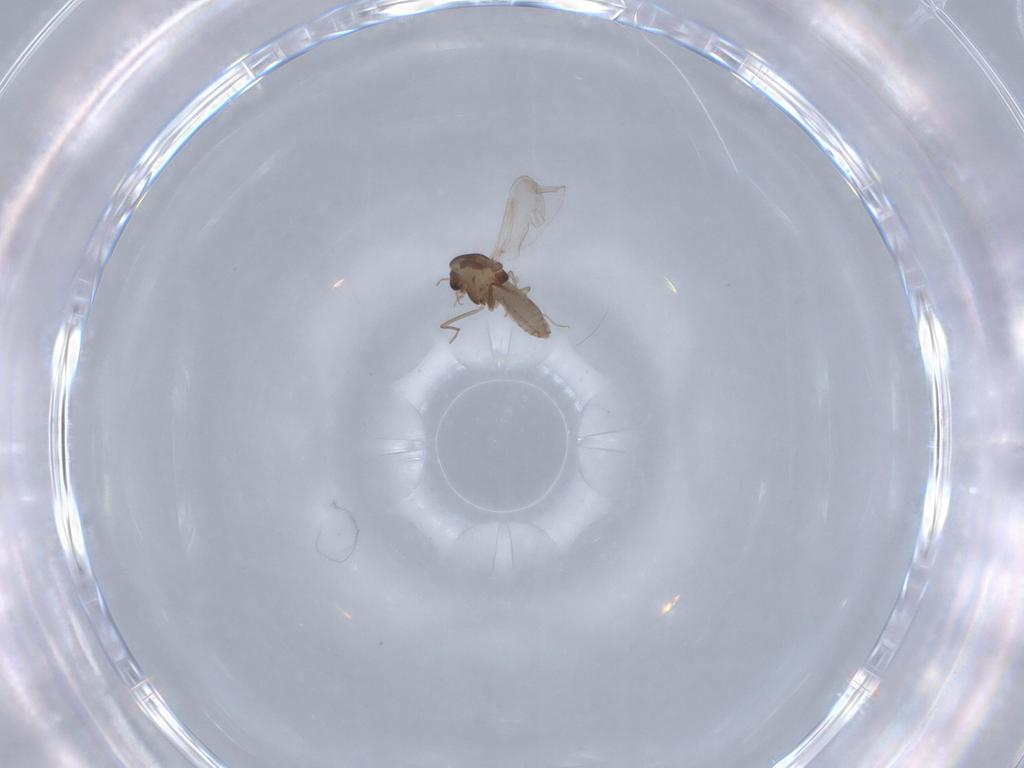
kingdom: Animalia
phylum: Arthropoda
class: Insecta
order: Diptera
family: Chironomidae
